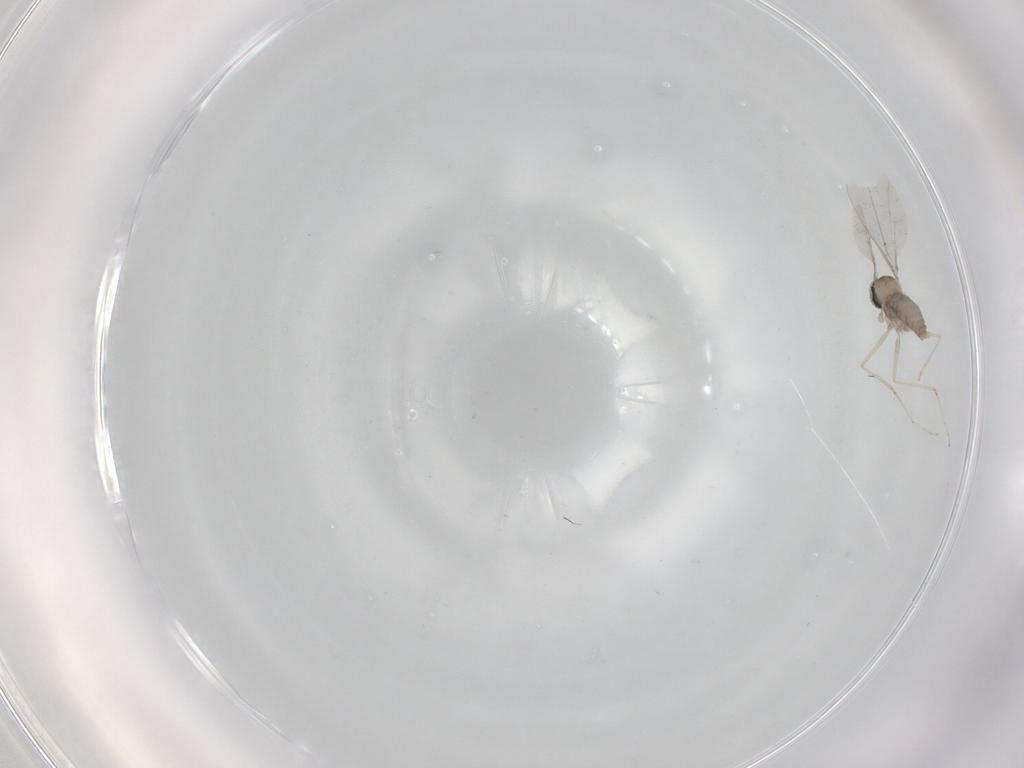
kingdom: Animalia
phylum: Arthropoda
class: Insecta
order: Diptera
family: Cecidomyiidae
